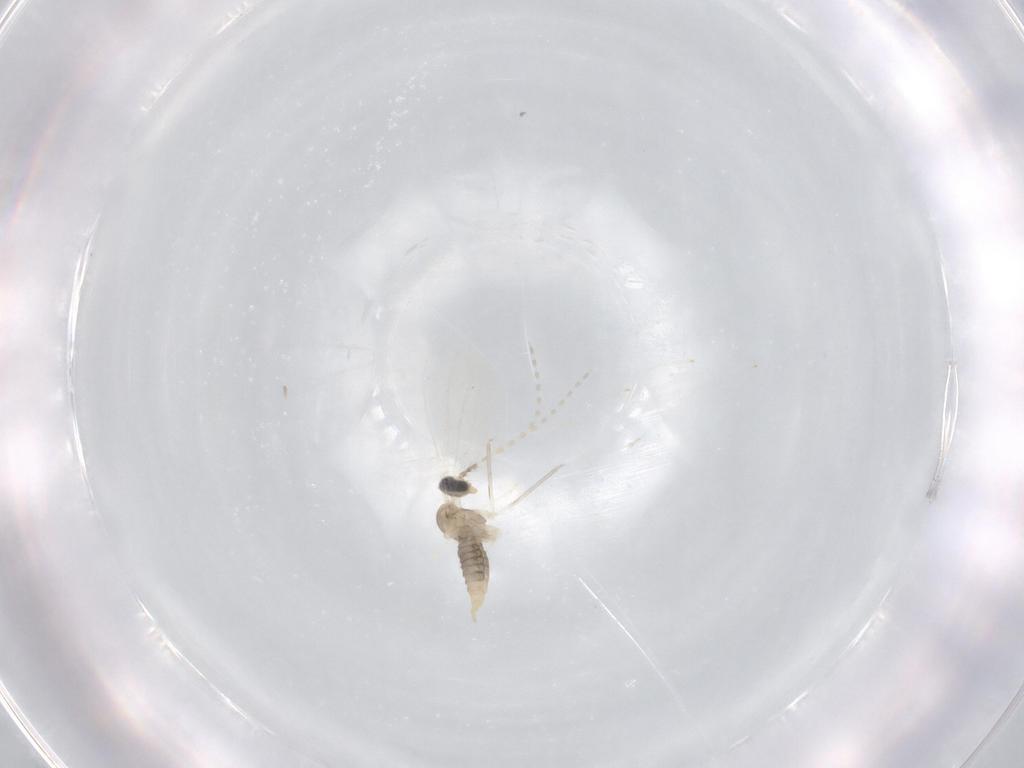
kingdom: Animalia
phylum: Arthropoda
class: Insecta
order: Diptera
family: Cecidomyiidae
